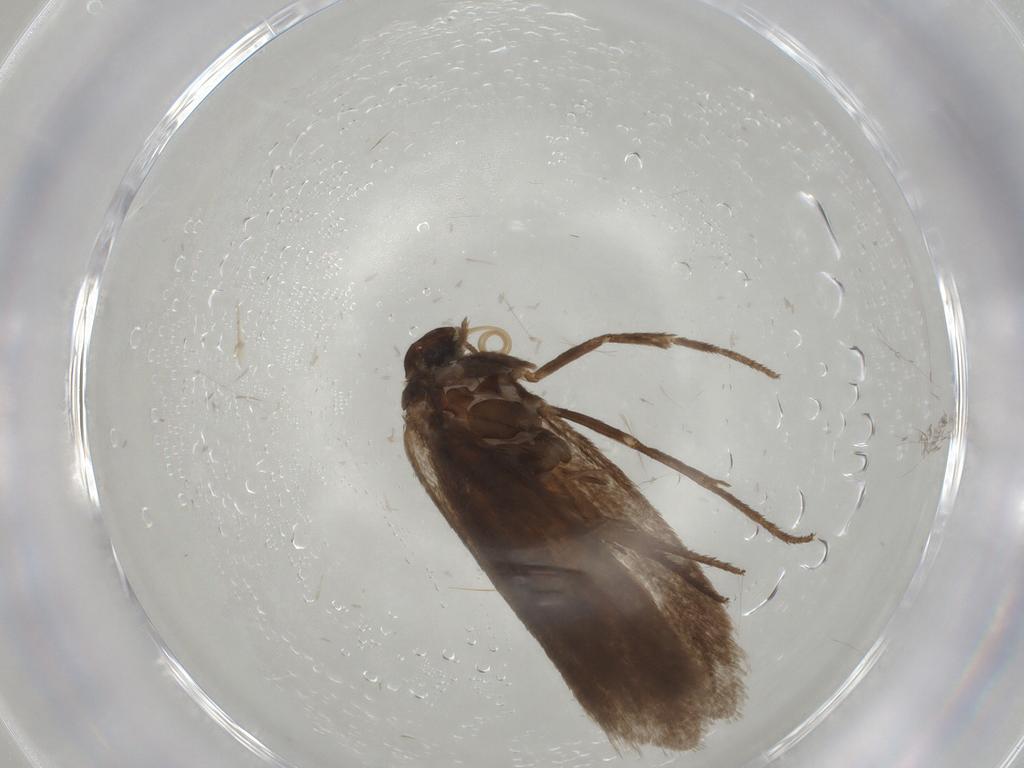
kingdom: Animalia
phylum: Arthropoda
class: Insecta
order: Lepidoptera
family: Limacodidae
